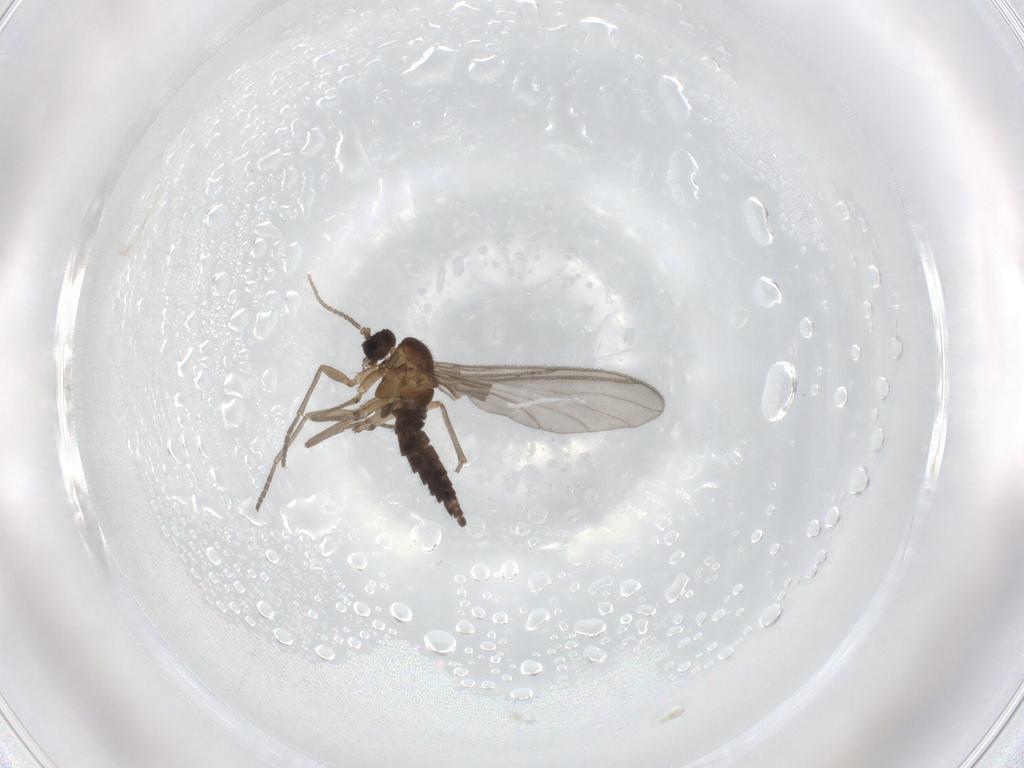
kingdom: Animalia
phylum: Arthropoda
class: Insecta
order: Diptera
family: Sciaridae
